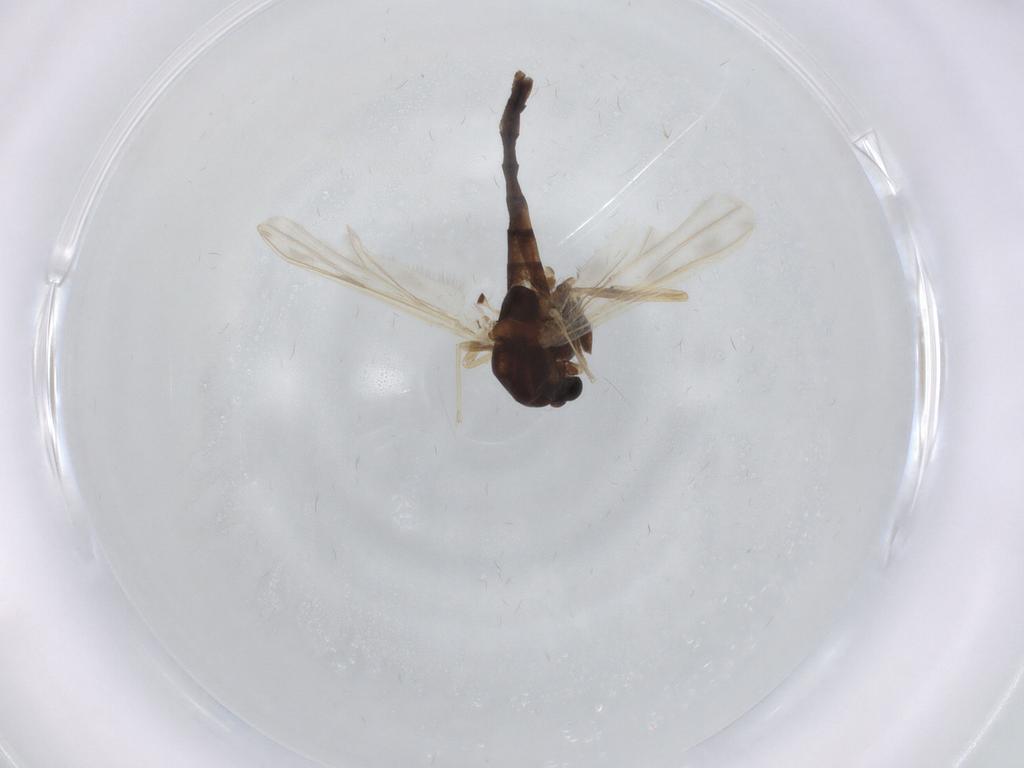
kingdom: Animalia
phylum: Arthropoda
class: Insecta
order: Diptera
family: Chironomidae
